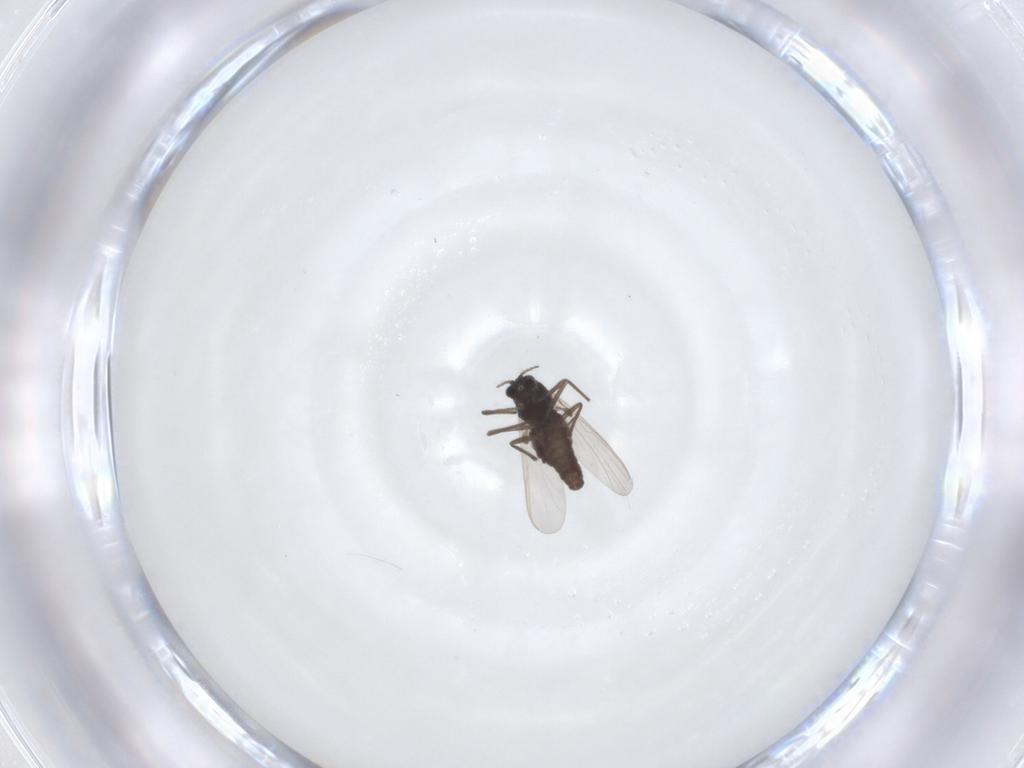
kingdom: Animalia
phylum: Arthropoda
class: Insecta
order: Diptera
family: Chironomidae
